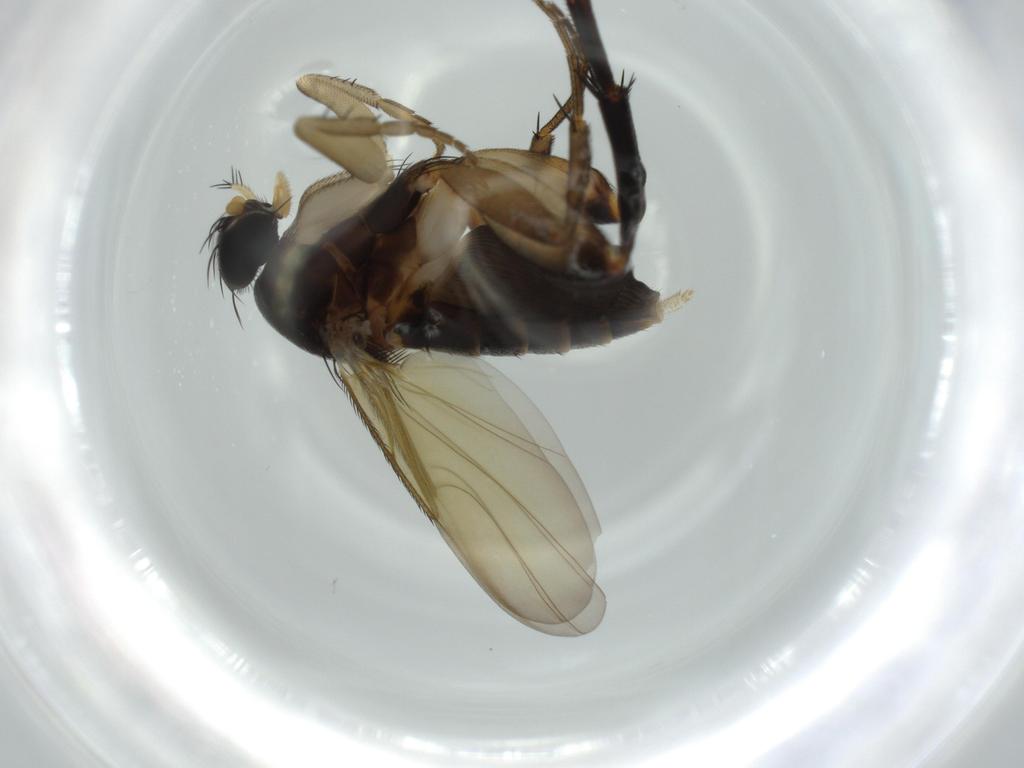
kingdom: Animalia
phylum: Arthropoda
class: Insecta
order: Diptera
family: Phoridae
